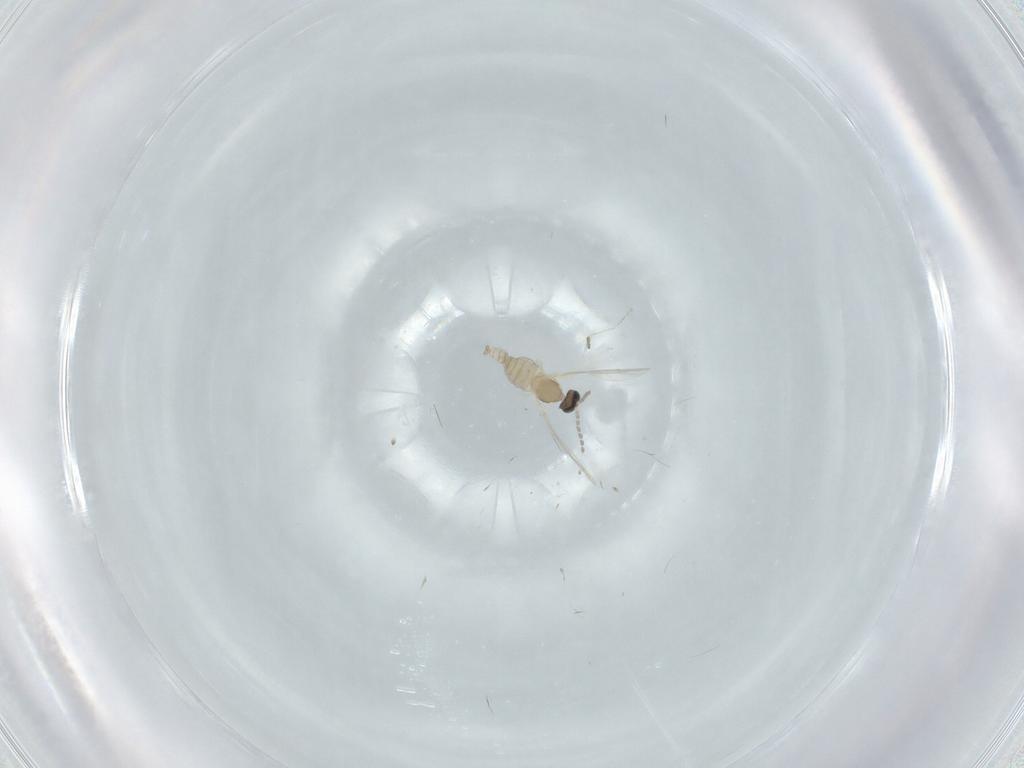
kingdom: Animalia
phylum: Arthropoda
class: Insecta
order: Diptera
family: Cecidomyiidae
